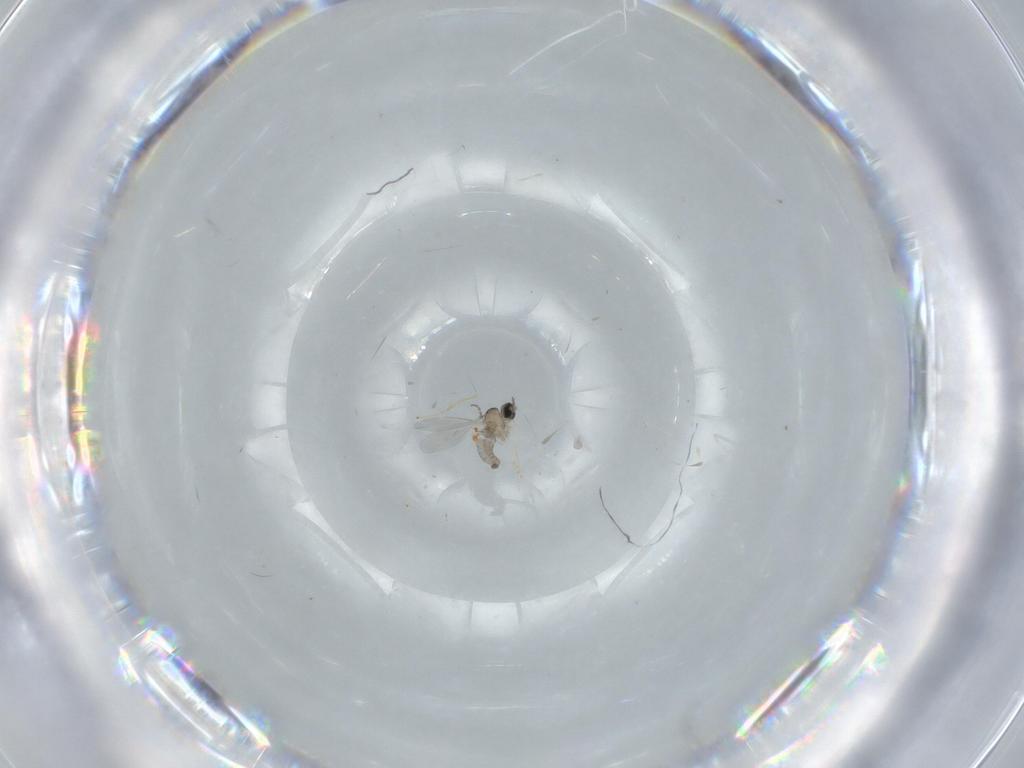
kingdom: Animalia
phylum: Arthropoda
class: Insecta
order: Diptera
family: Cecidomyiidae
